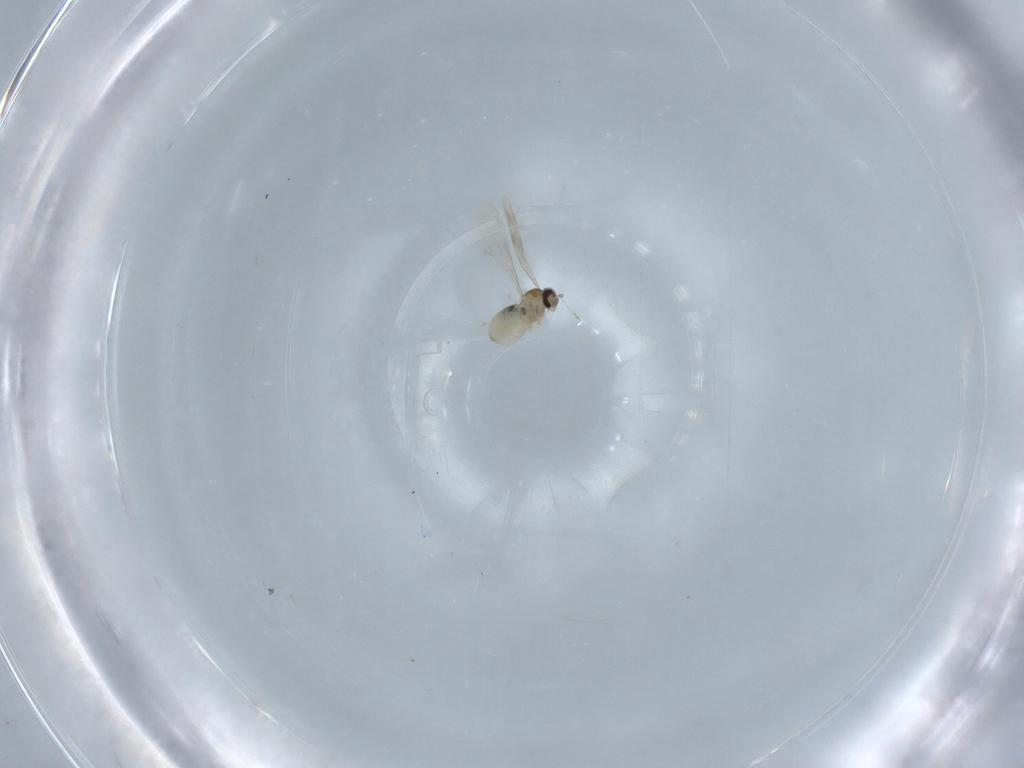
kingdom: Animalia
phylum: Arthropoda
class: Insecta
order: Diptera
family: Cecidomyiidae
